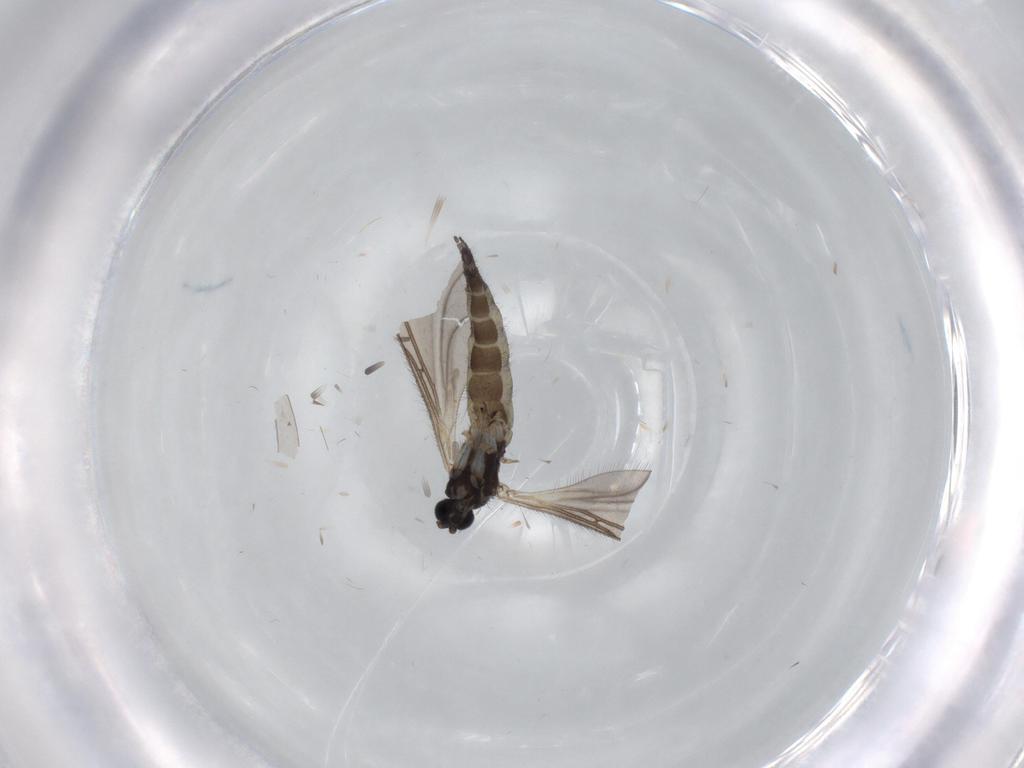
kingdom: Animalia
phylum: Arthropoda
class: Insecta
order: Diptera
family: Sciaridae
